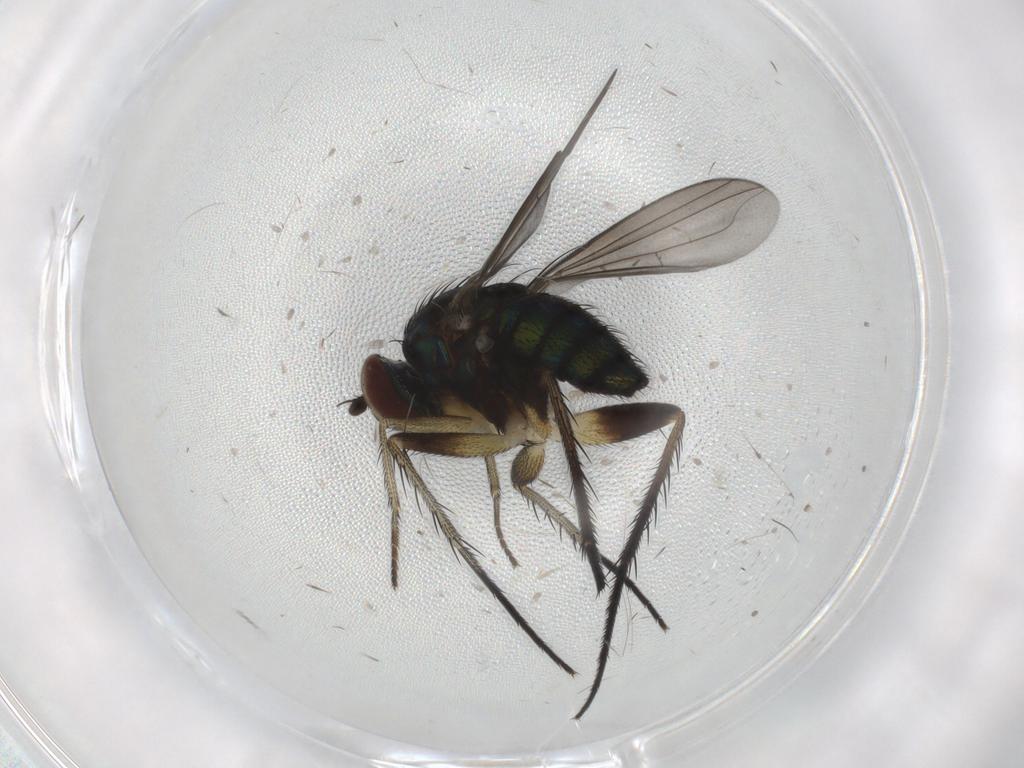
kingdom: Animalia
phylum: Arthropoda
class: Insecta
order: Diptera
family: Dolichopodidae
